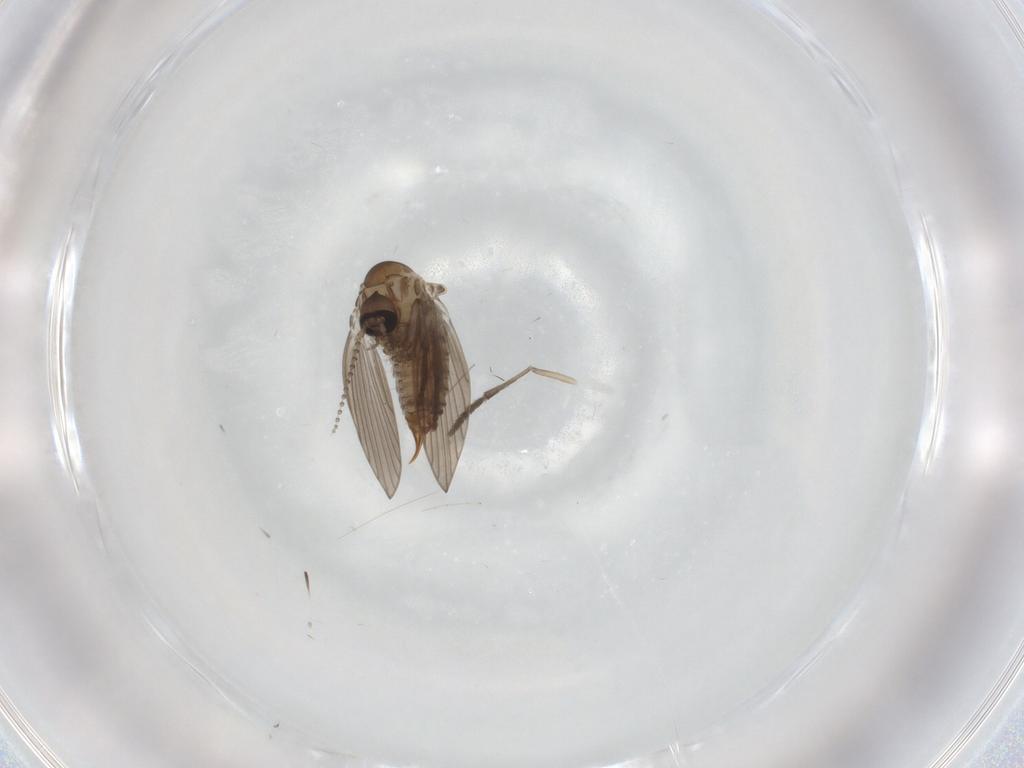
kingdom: Animalia
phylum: Arthropoda
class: Insecta
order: Diptera
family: Psychodidae
